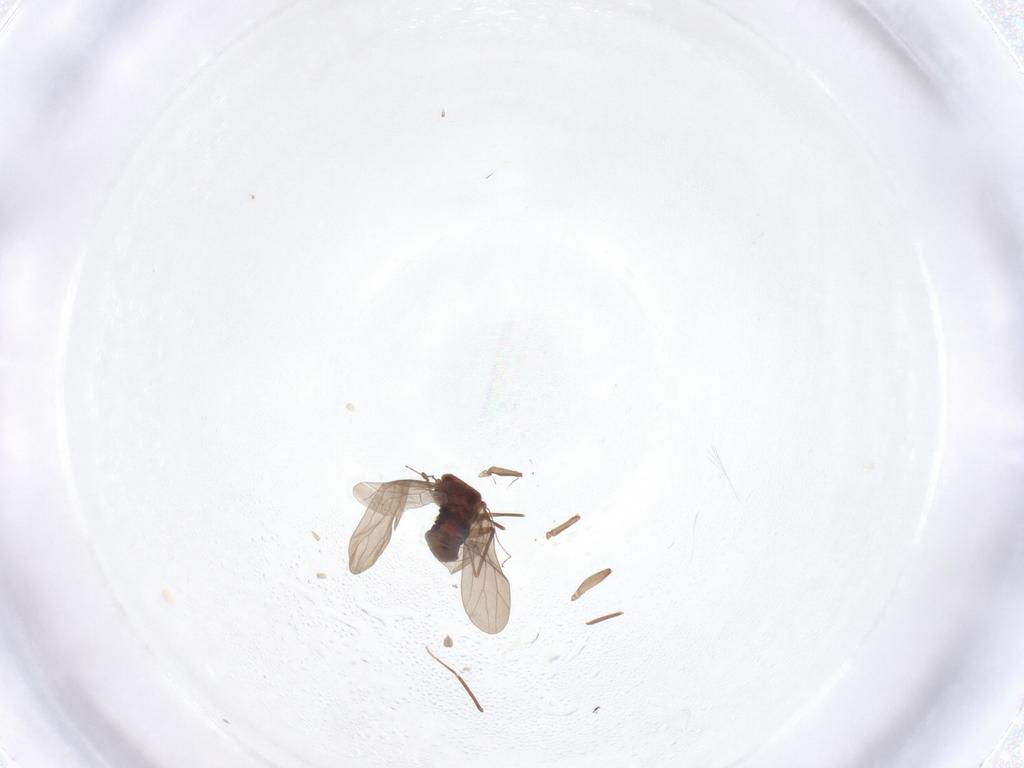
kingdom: Animalia
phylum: Arthropoda
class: Insecta
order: Psocodea
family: Lepidopsocidae
